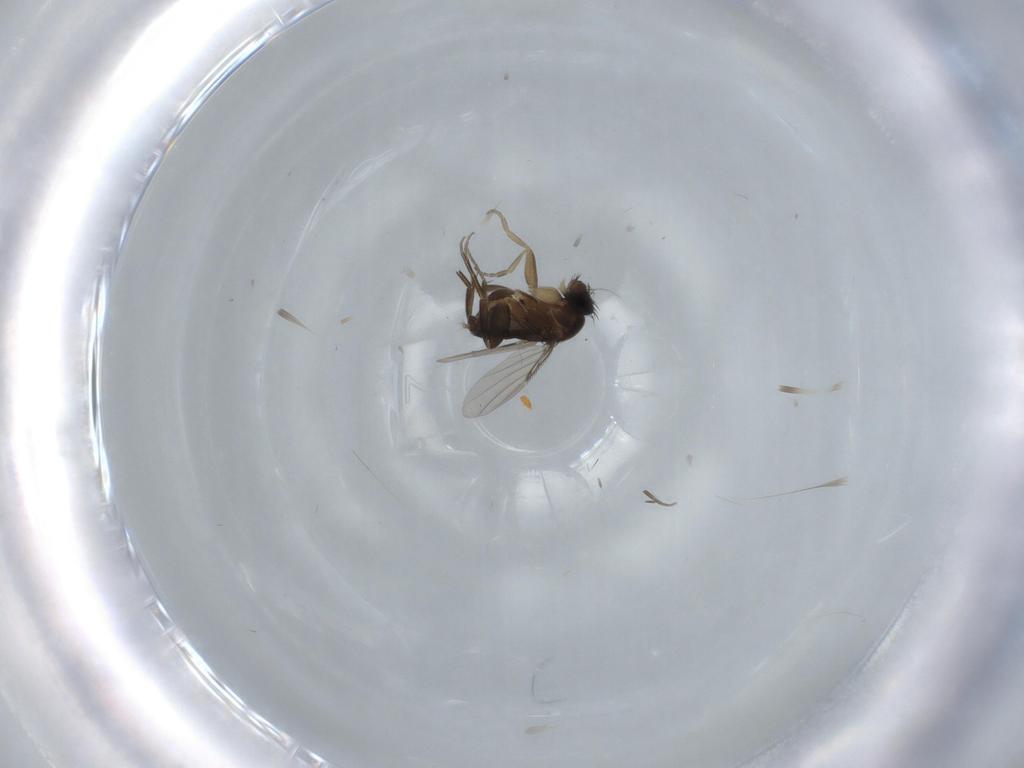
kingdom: Animalia
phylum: Arthropoda
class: Insecta
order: Diptera
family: Phoridae
